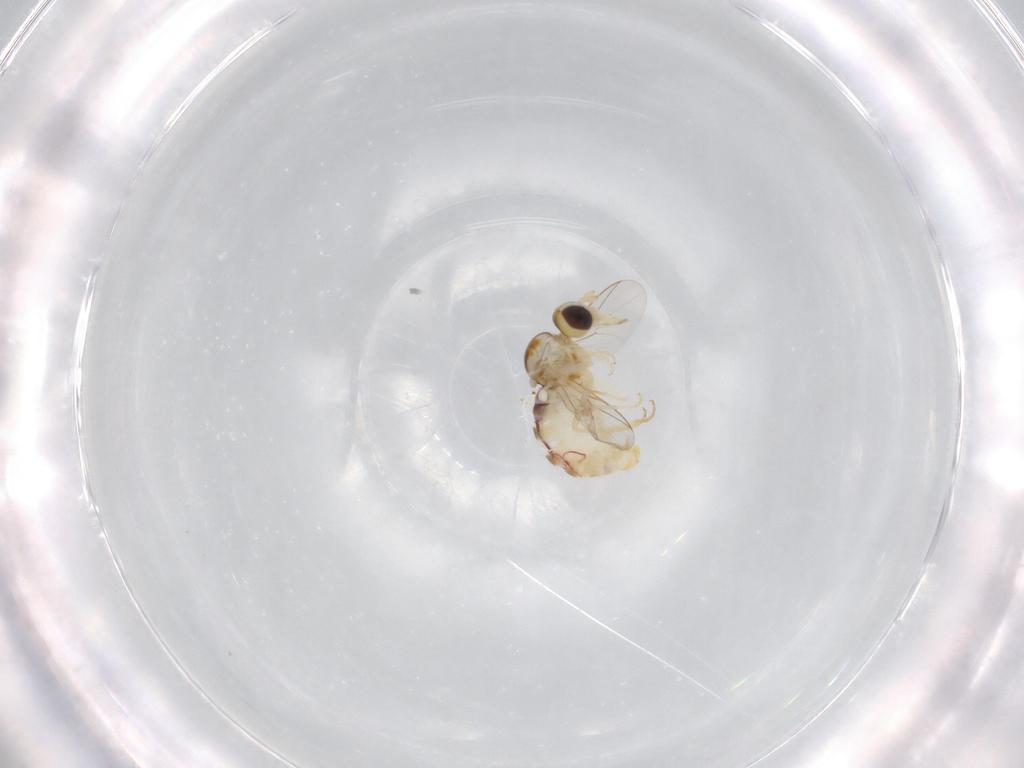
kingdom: Animalia
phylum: Arthropoda
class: Insecta
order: Diptera
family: Mythicomyiidae
